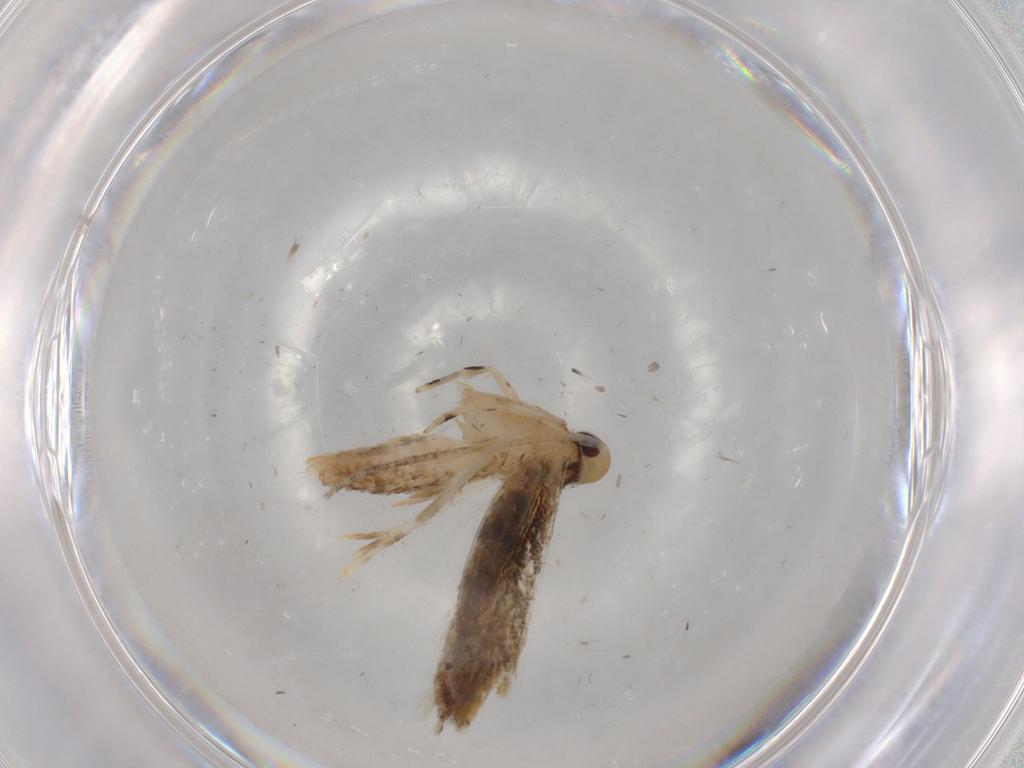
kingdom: Animalia
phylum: Arthropoda
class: Insecta
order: Lepidoptera
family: Momphidae
